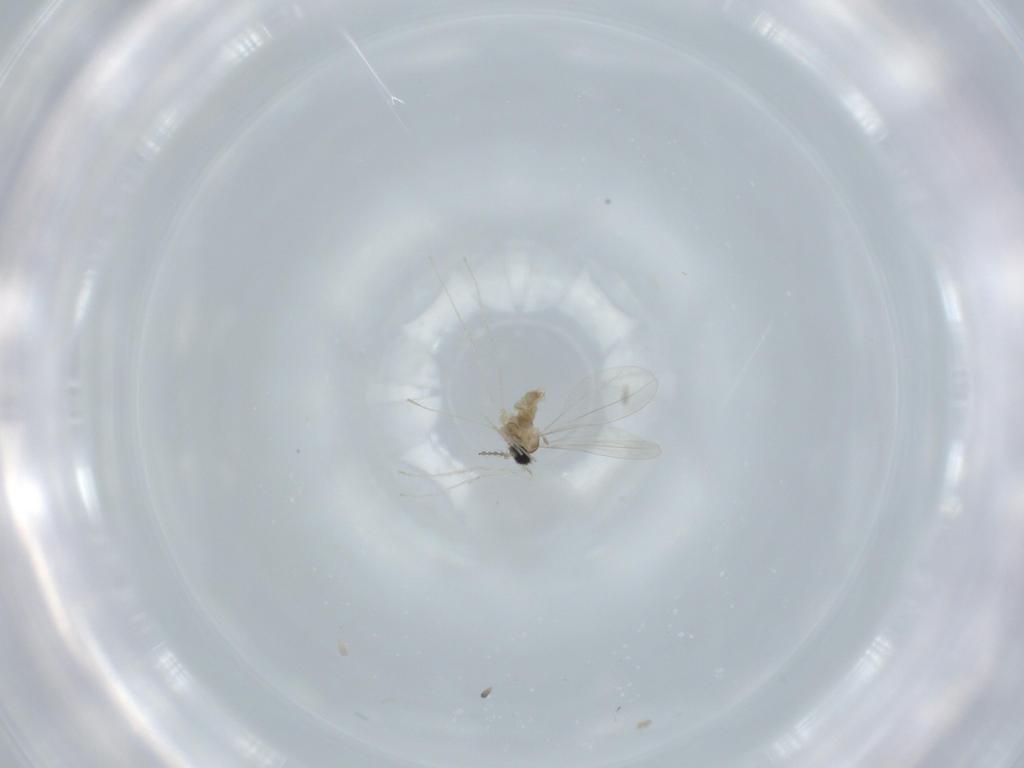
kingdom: Animalia
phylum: Arthropoda
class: Insecta
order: Diptera
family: Cecidomyiidae
